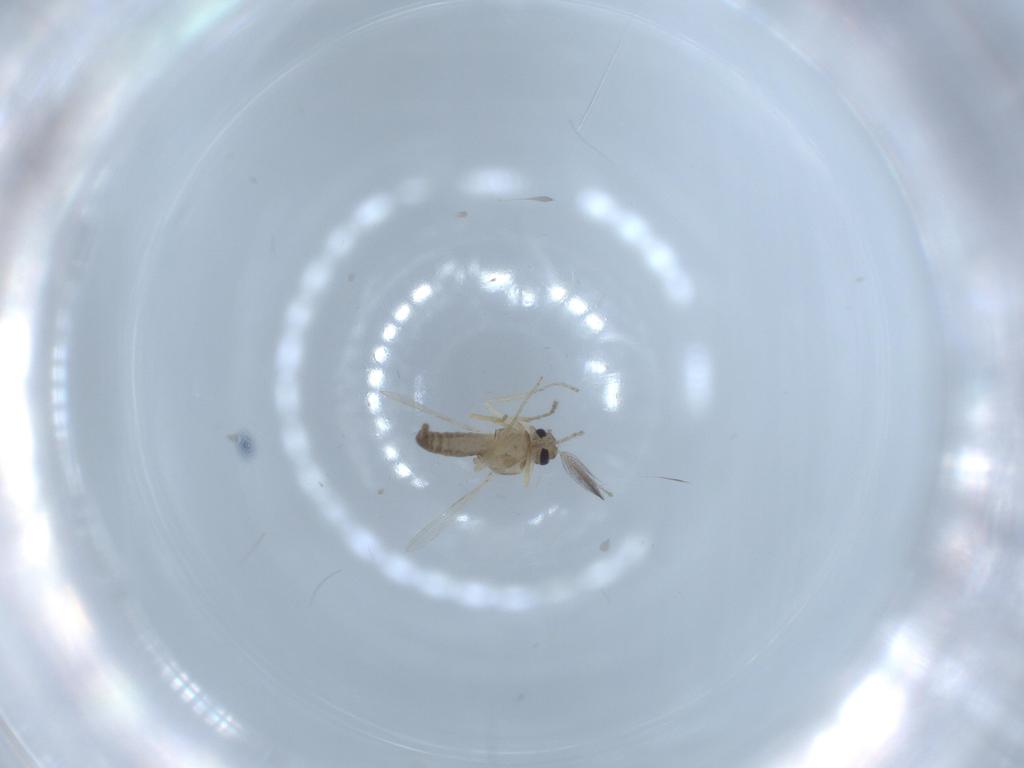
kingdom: Animalia
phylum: Arthropoda
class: Insecta
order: Diptera
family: Ceratopogonidae
